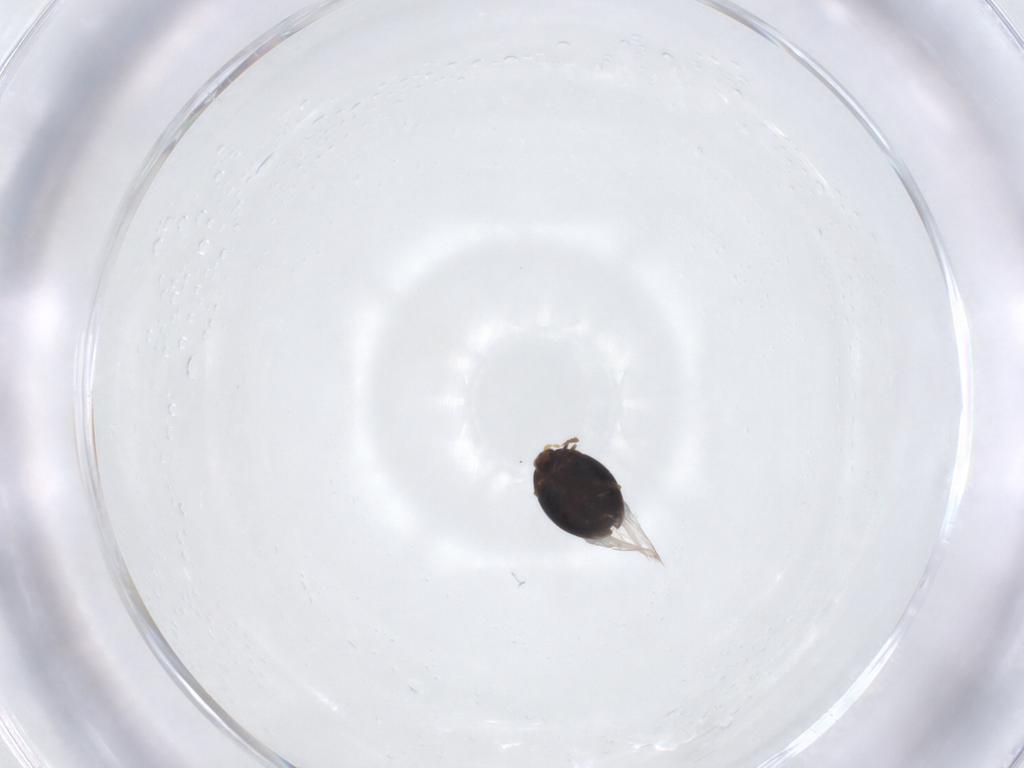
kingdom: Animalia
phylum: Arthropoda
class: Insecta
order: Coleoptera
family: Corylophidae
